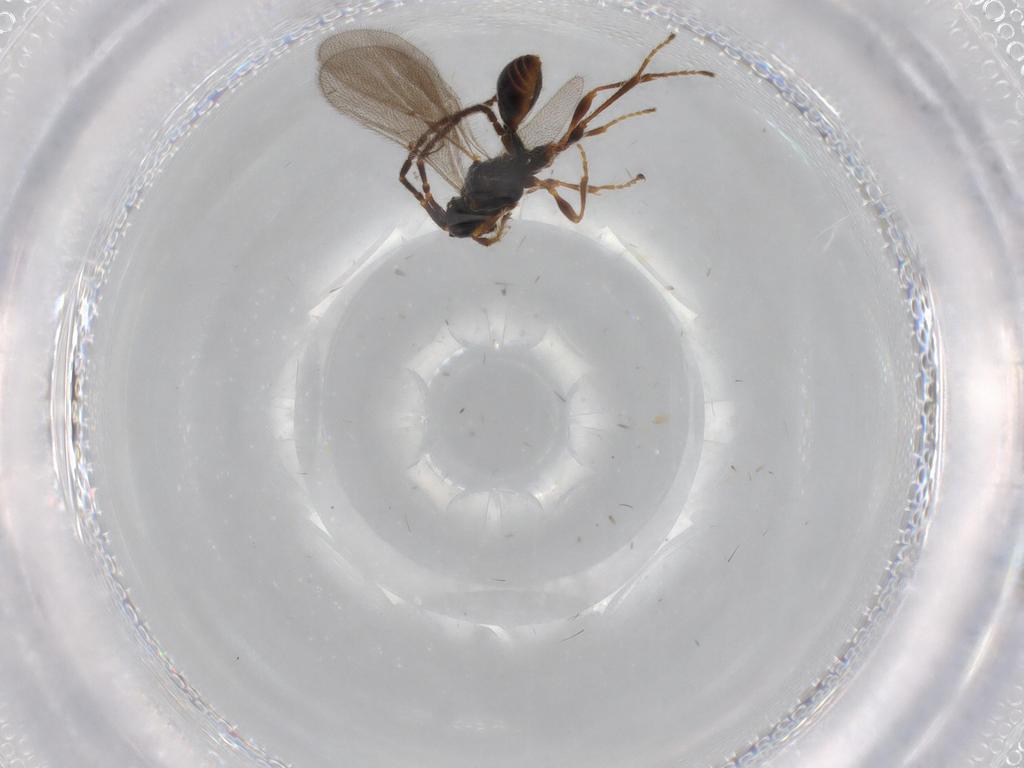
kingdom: Animalia
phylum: Arthropoda
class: Insecta
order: Hymenoptera
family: Diapriidae
